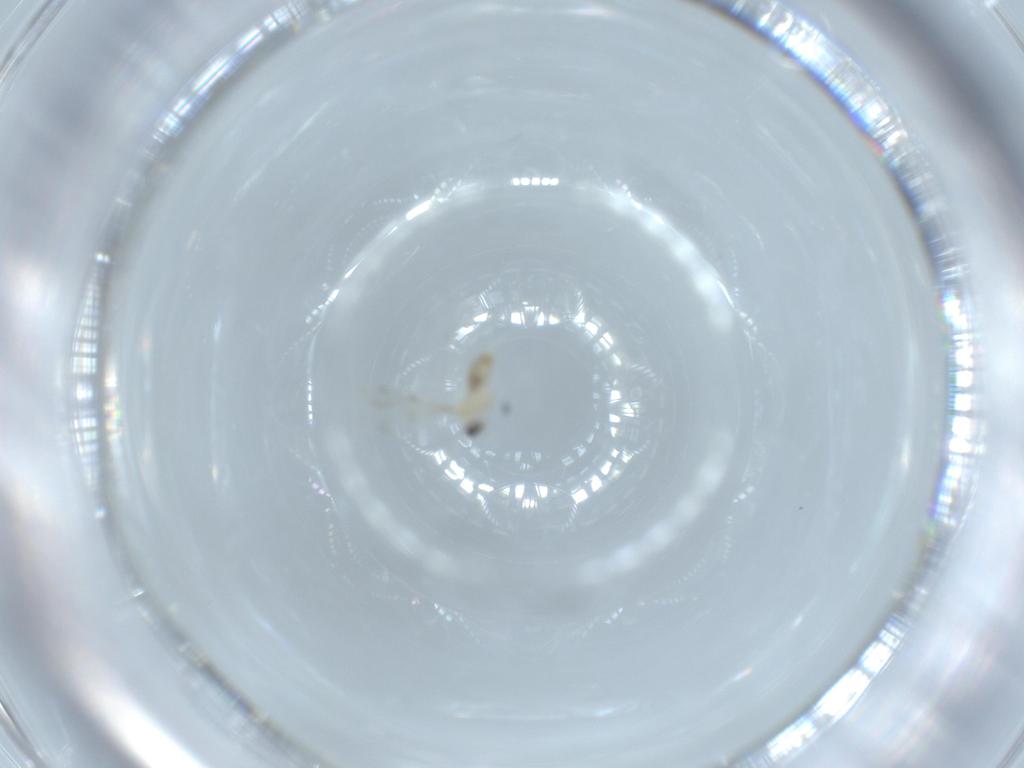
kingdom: Animalia
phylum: Arthropoda
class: Insecta
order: Diptera
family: Cecidomyiidae
